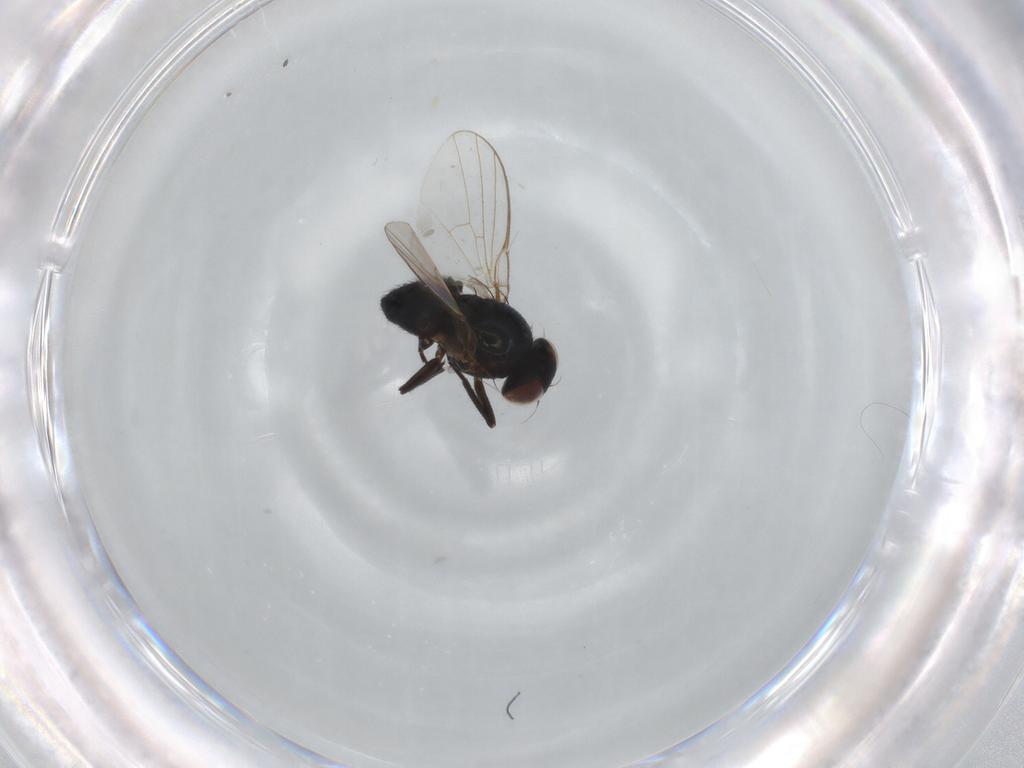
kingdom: Animalia
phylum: Arthropoda
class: Insecta
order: Diptera
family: Agromyzidae
